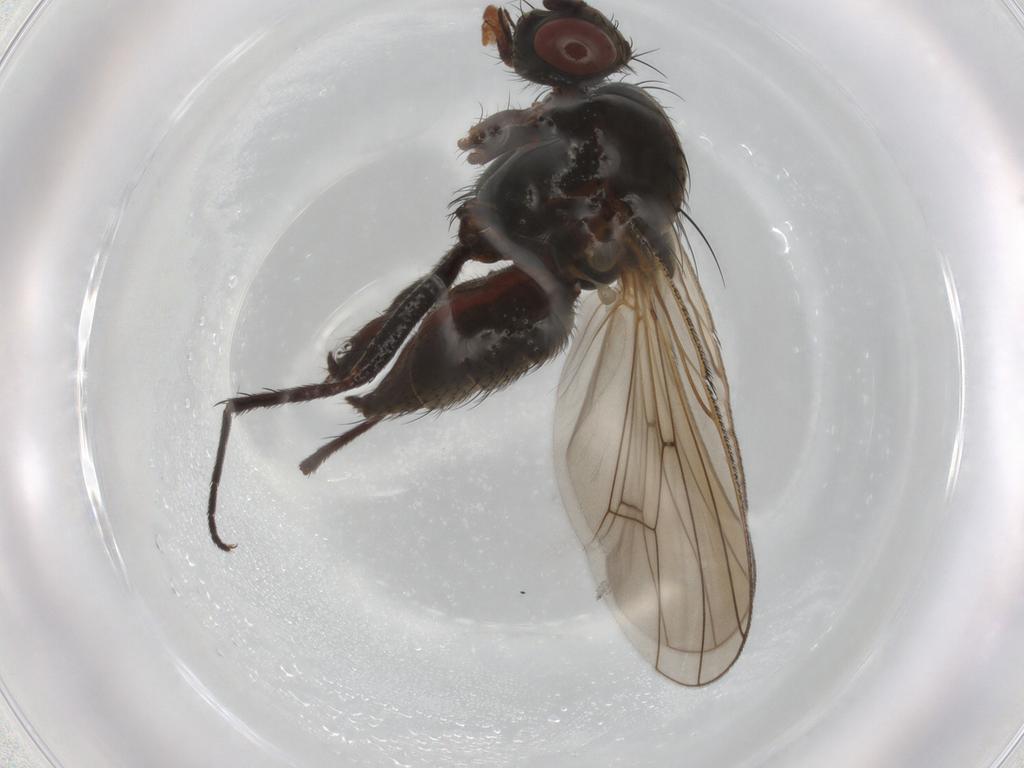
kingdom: Animalia
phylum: Arthropoda
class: Insecta
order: Diptera
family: Anthomyiidae
